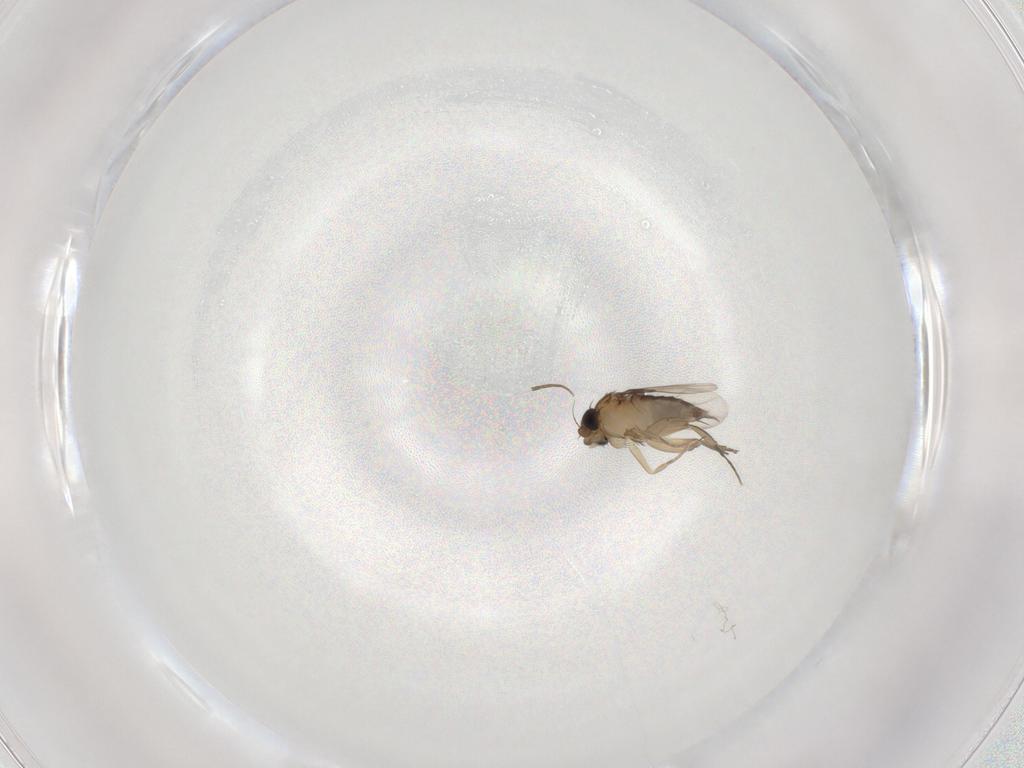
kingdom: Animalia
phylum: Arthropoda
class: Insecta
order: Diptera
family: Phoridae
